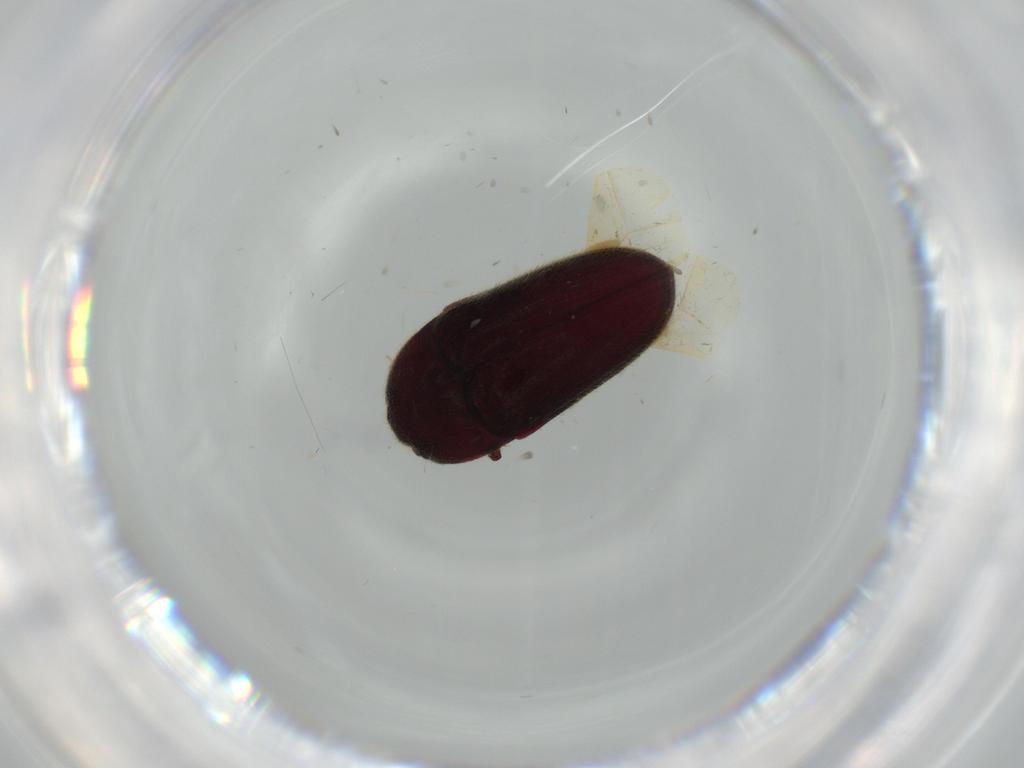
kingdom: Animalia
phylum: Arthropoda
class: Insecta
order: Coleoptera
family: Throscidae
